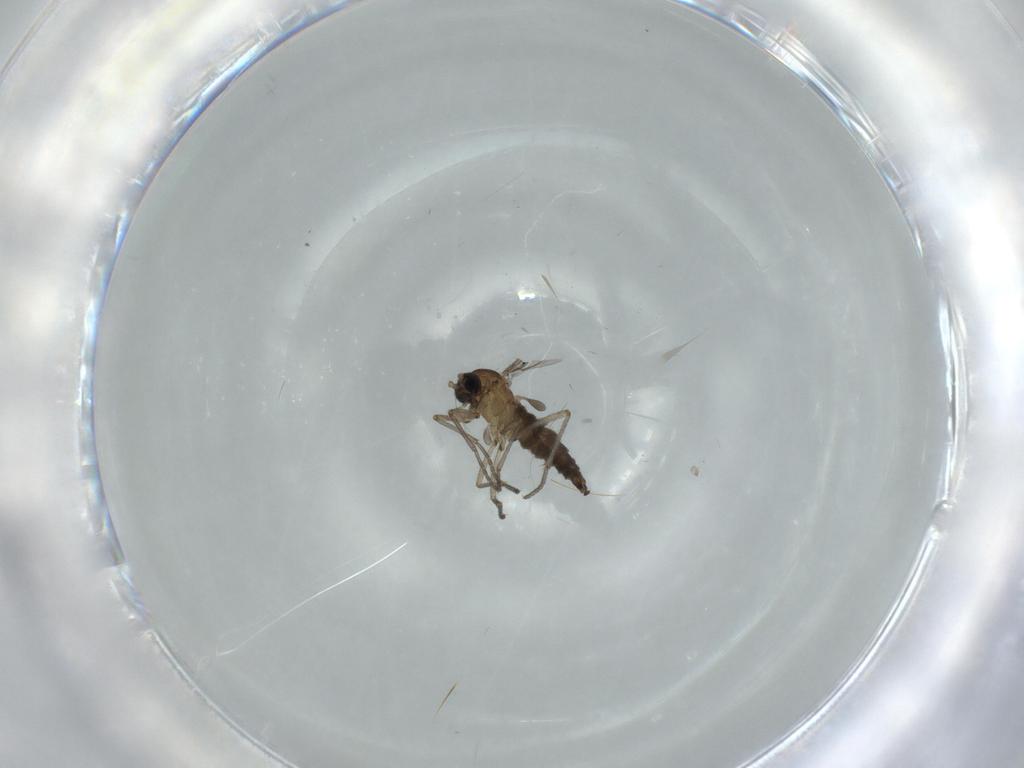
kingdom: Animalia
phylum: Arthropoda
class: Insecta
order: Diptera
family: Sciaridae
